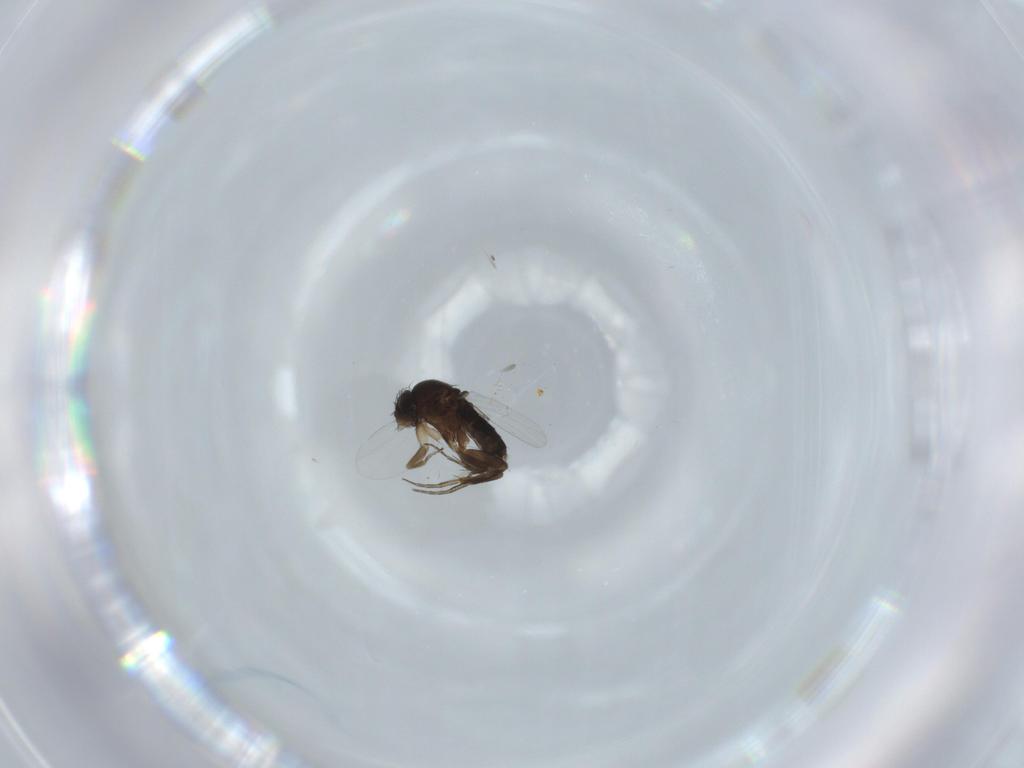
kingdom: Animalia
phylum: Arthropoda
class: Insecta
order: Diptera
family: Phoridae
